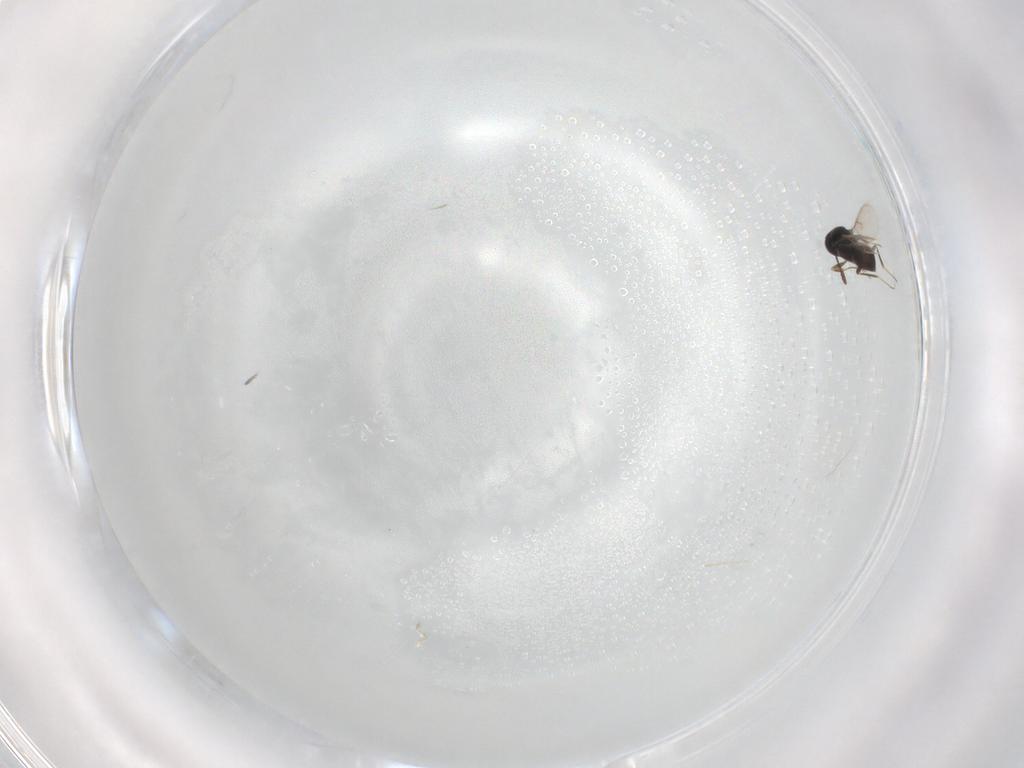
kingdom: Animalia
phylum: Arthropoda
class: Insecta
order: Hymenoptera
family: Scelionidae
